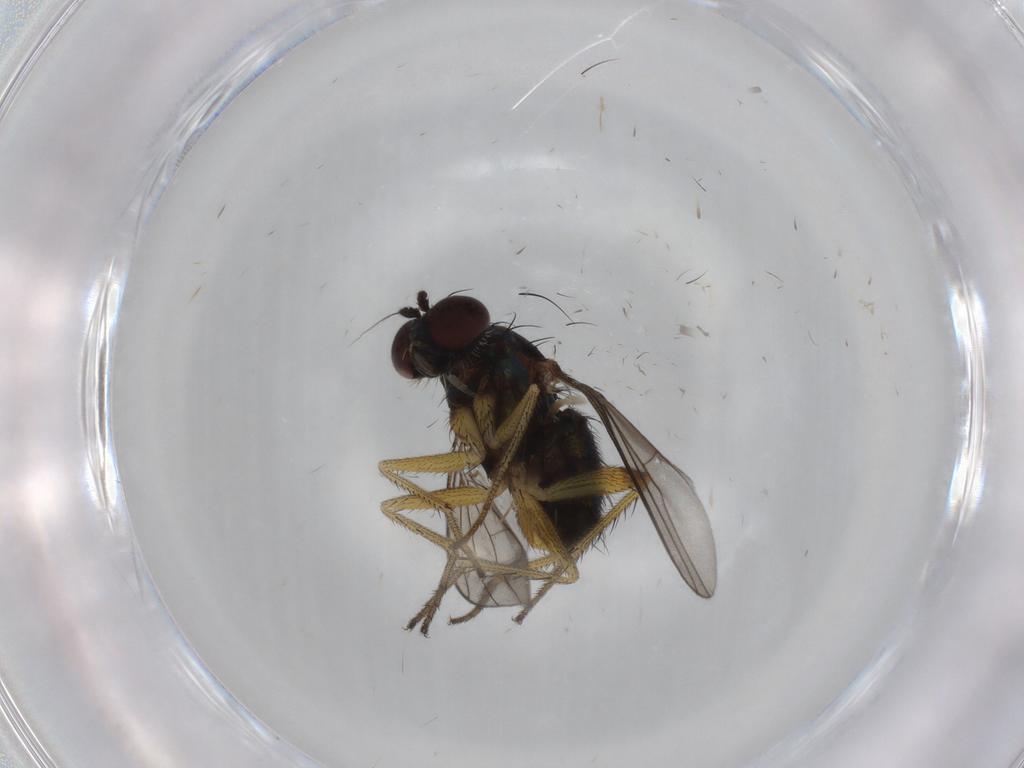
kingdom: Animalia
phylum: Arthropoda
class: Insecta
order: Diptera
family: Dolichopodidae
